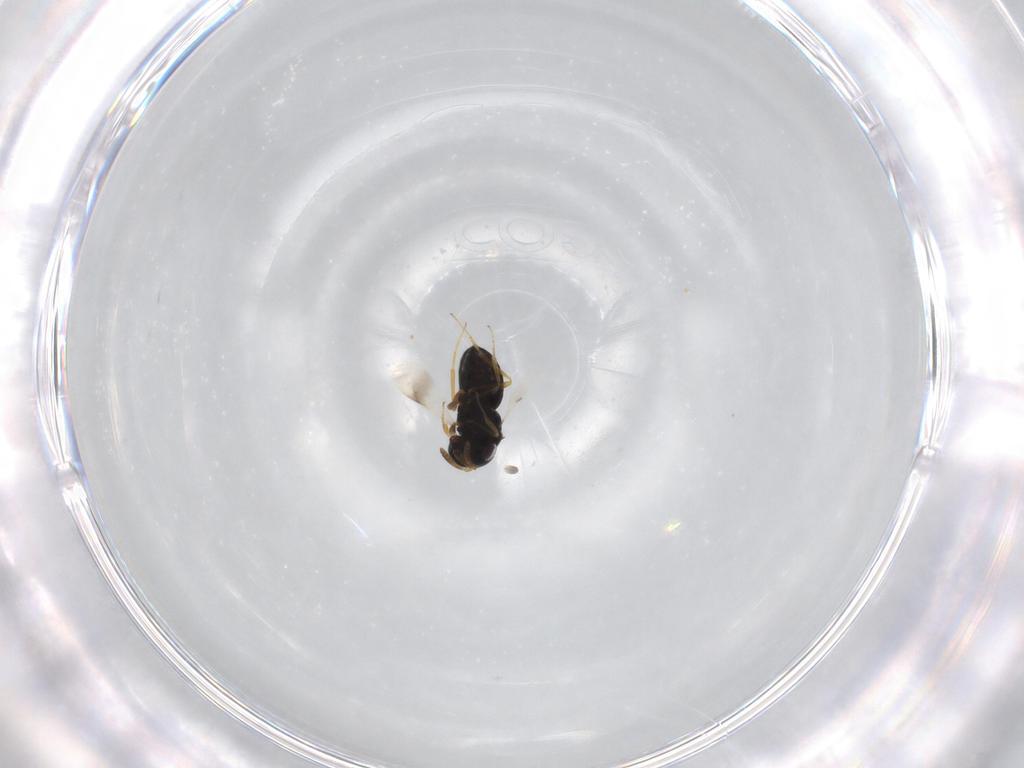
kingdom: Animalia
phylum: Arthropoda
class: Insecta
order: Hymenoptera
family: Scelionidae
